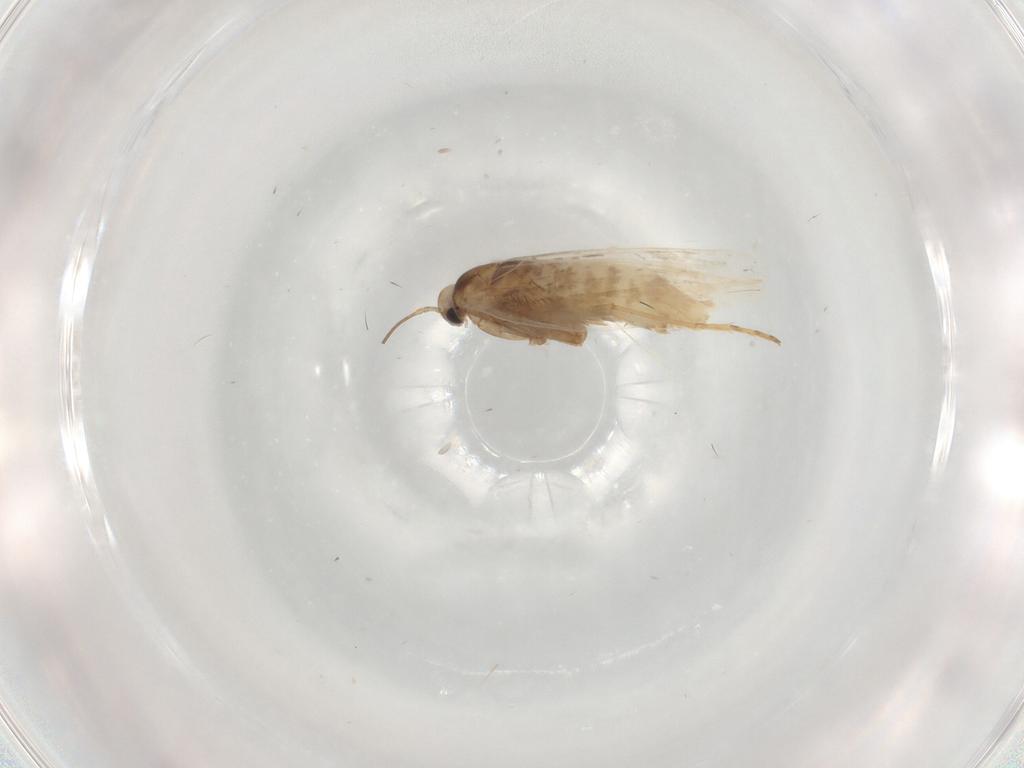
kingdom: Animalia
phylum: Arthropoda
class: Insecta
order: Lepidoptera
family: Gracillariidae
